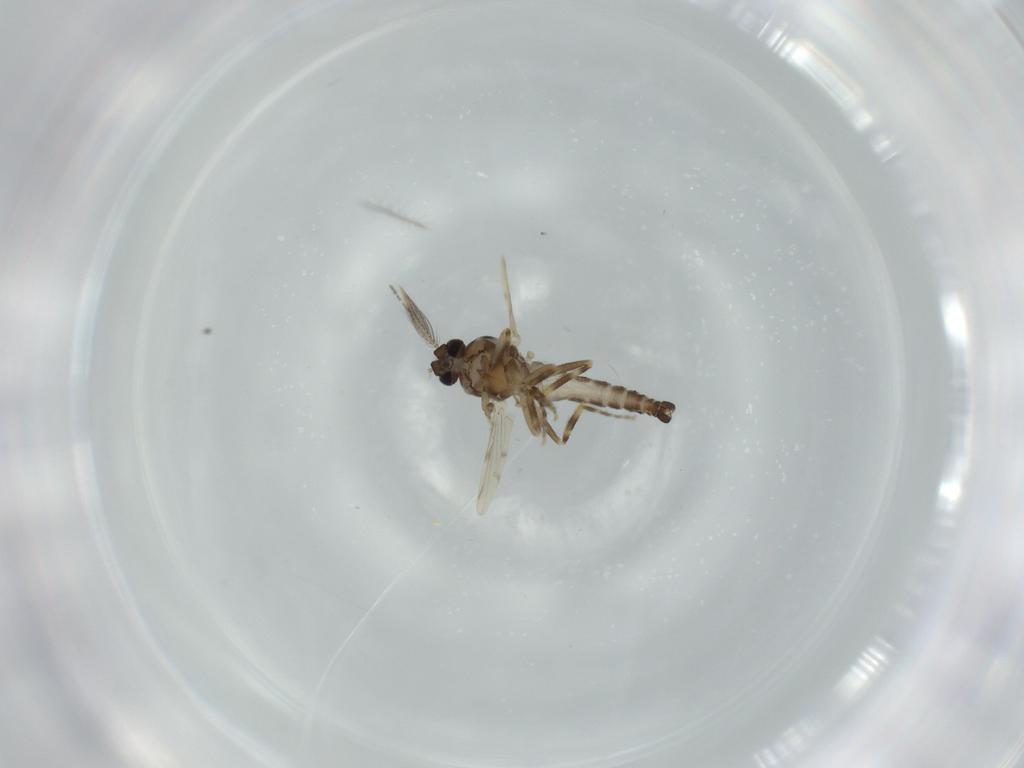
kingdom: Animalia
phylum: Arthropoda
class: Insecta
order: Diptera
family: Ceratopogonidae
